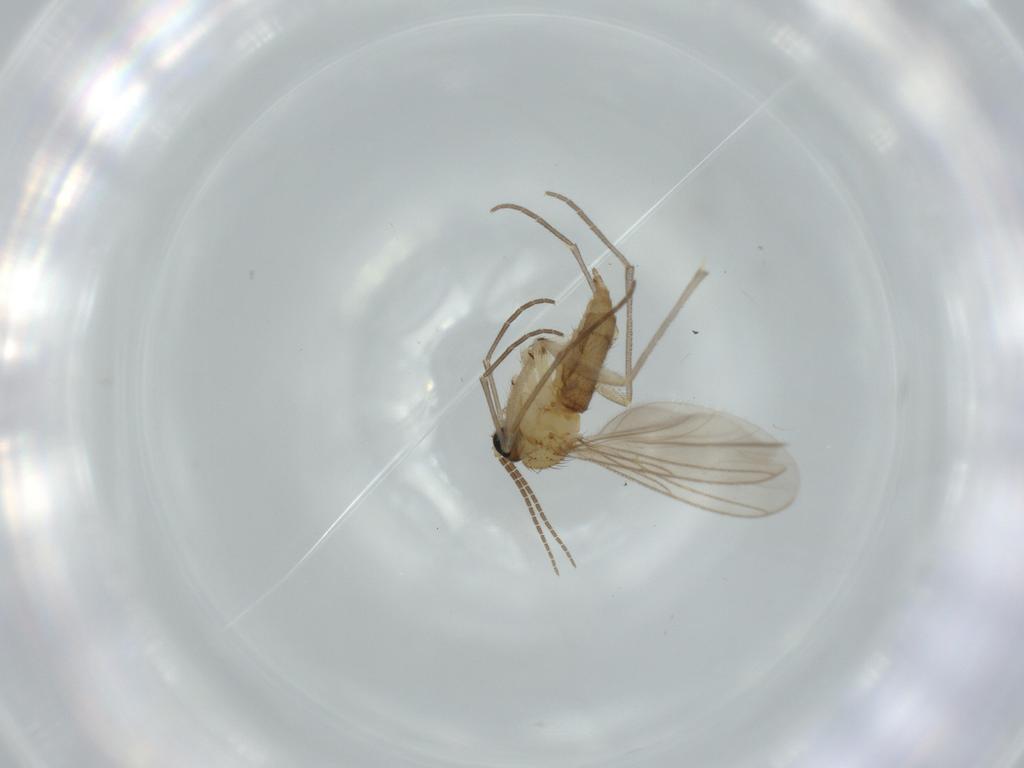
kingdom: Animalia
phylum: Arthropoda
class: Insecta
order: Diptera
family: Sciaridae
